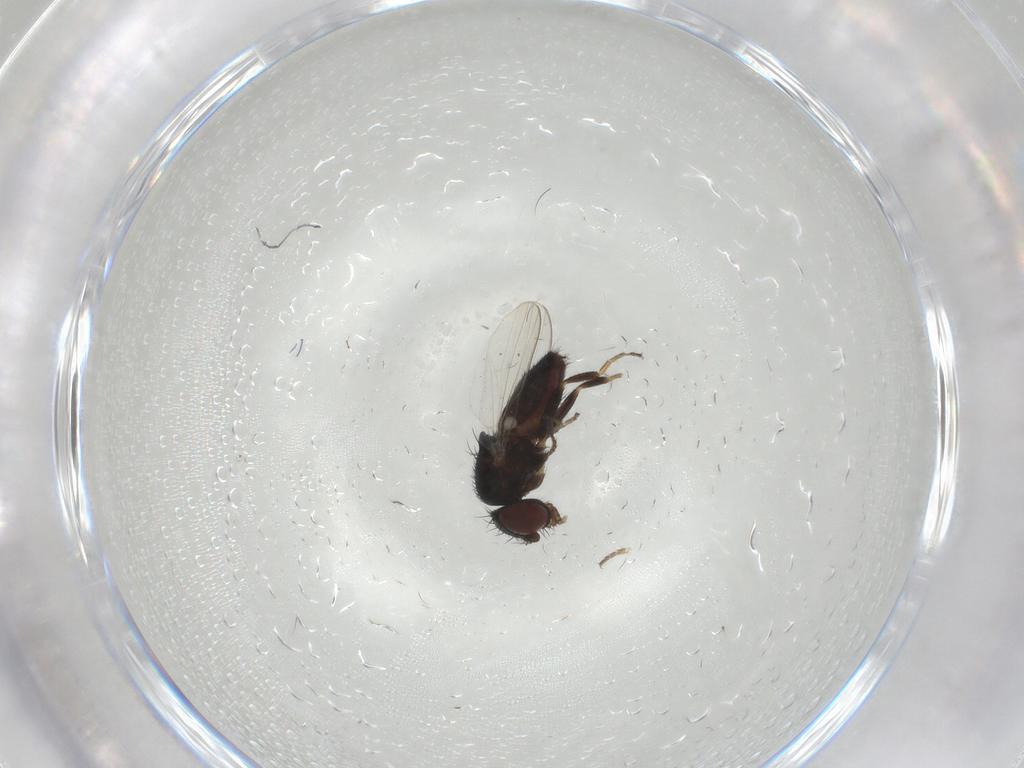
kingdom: Animalia
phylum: Arthropoda
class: Insecta
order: Diptera
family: Milichiidae
